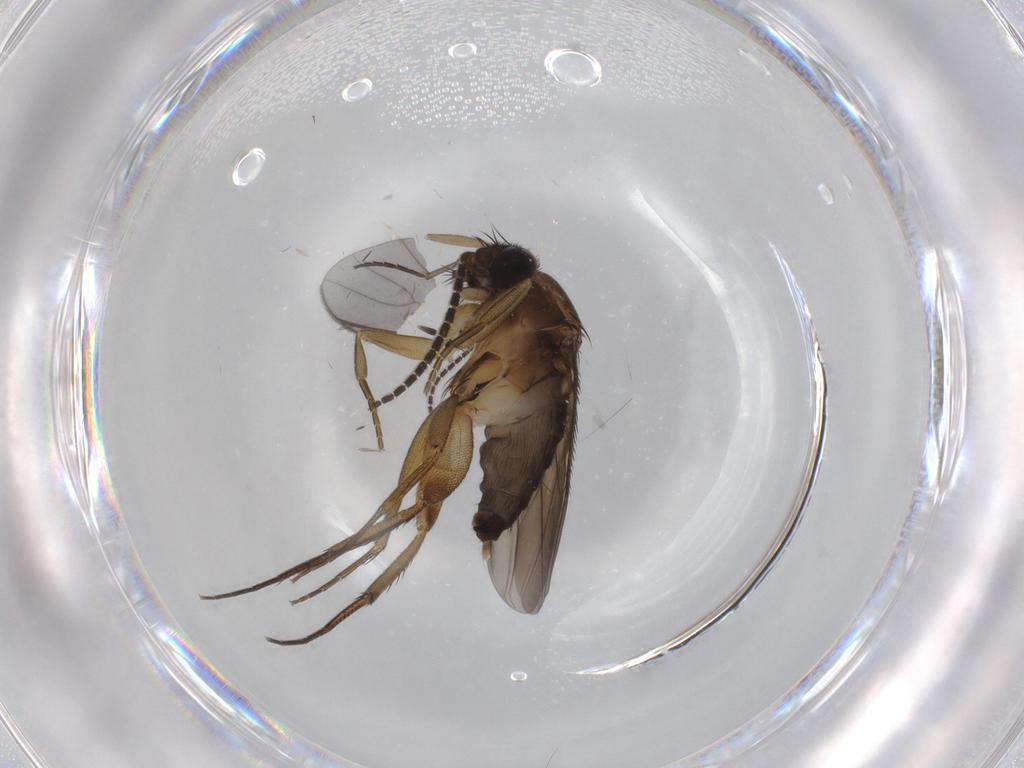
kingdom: Animalia
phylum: Arthropoda
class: Insecta
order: Diptera
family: Phoridae
